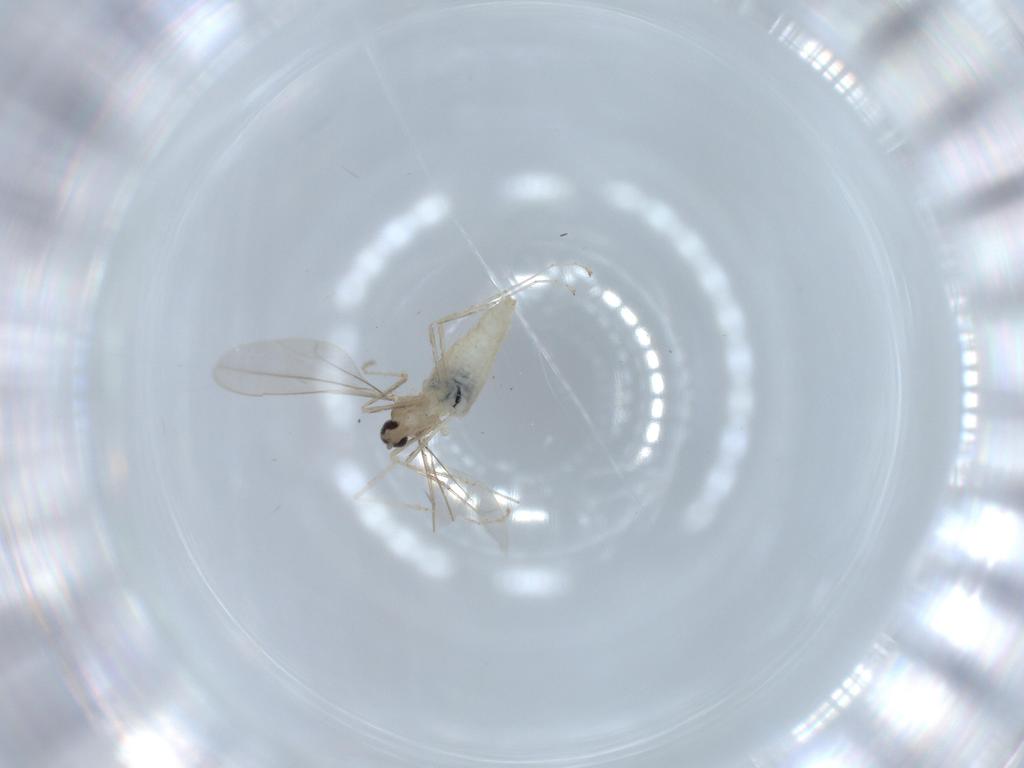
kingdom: Animalia
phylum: Arthropoda
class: Insecta
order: Diptera
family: Cecidomyiidae
